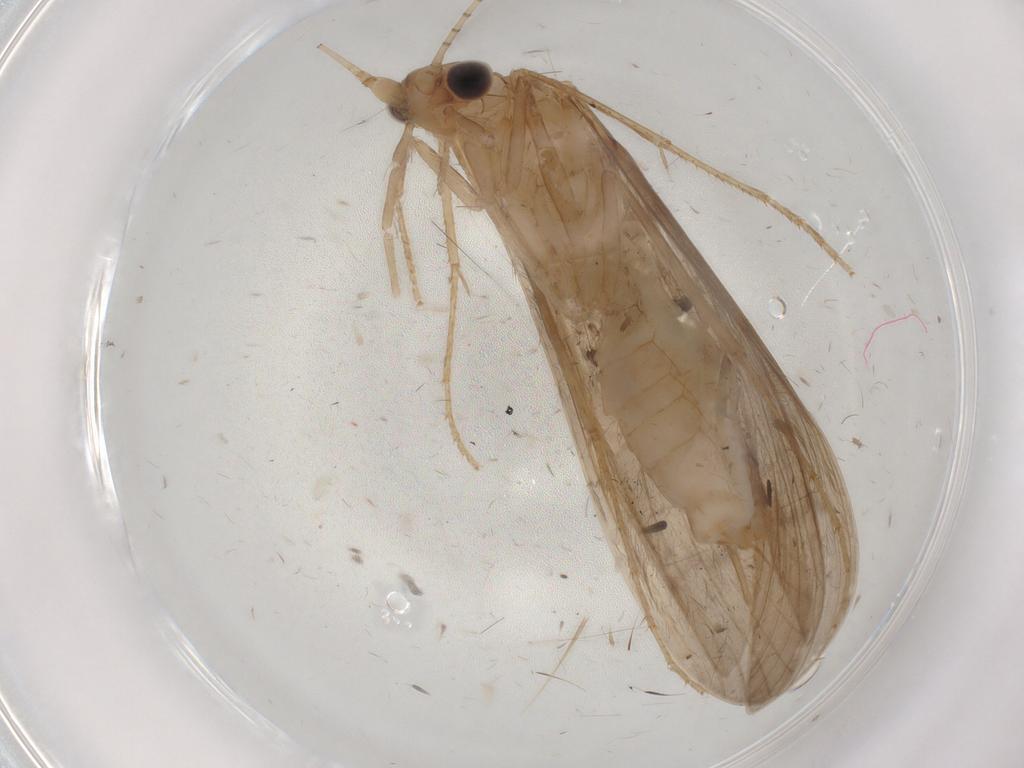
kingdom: Animalia
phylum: Arthropoda
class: Insecta
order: Trichoptera
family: Leptoceridae
